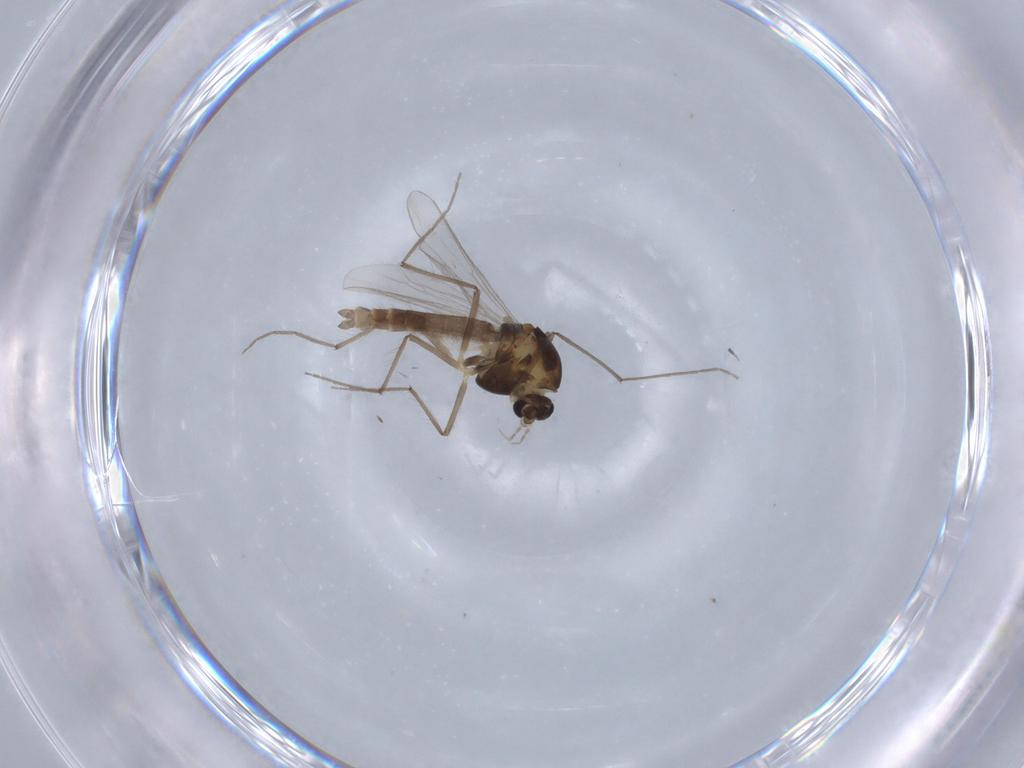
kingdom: Animalia
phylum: Arthropoda
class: Insecta
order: Diptera
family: Chironomidae
